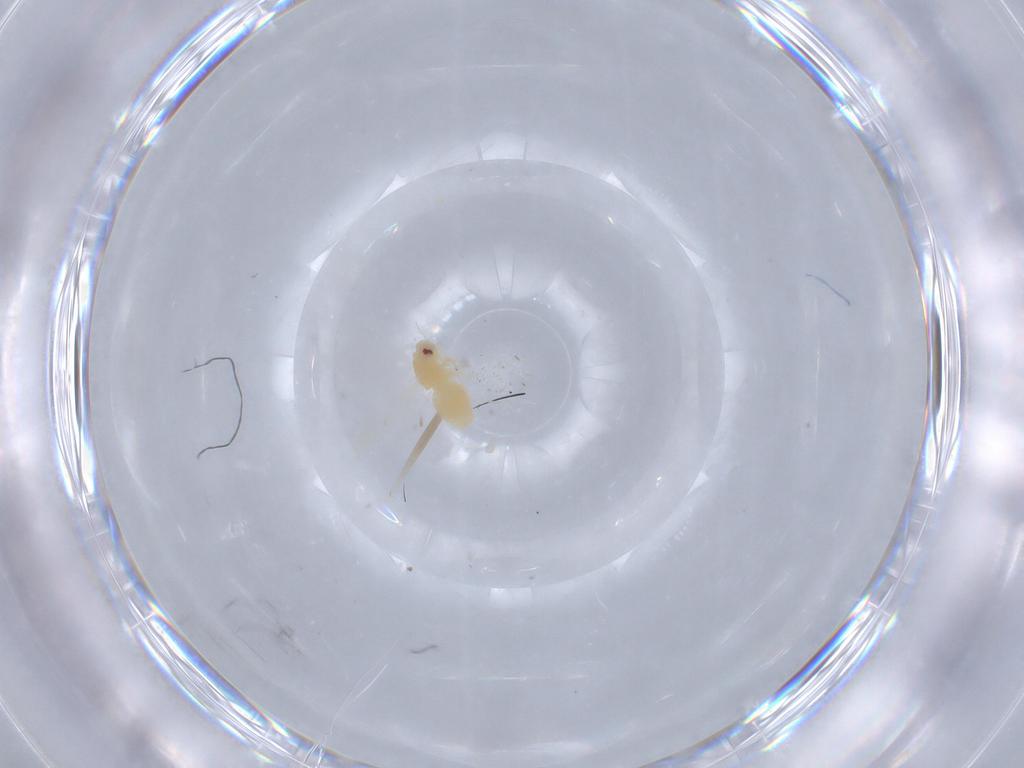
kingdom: Animalia
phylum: Arthropoda
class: Insecta
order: Hemiptera
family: Aleyrodidae
